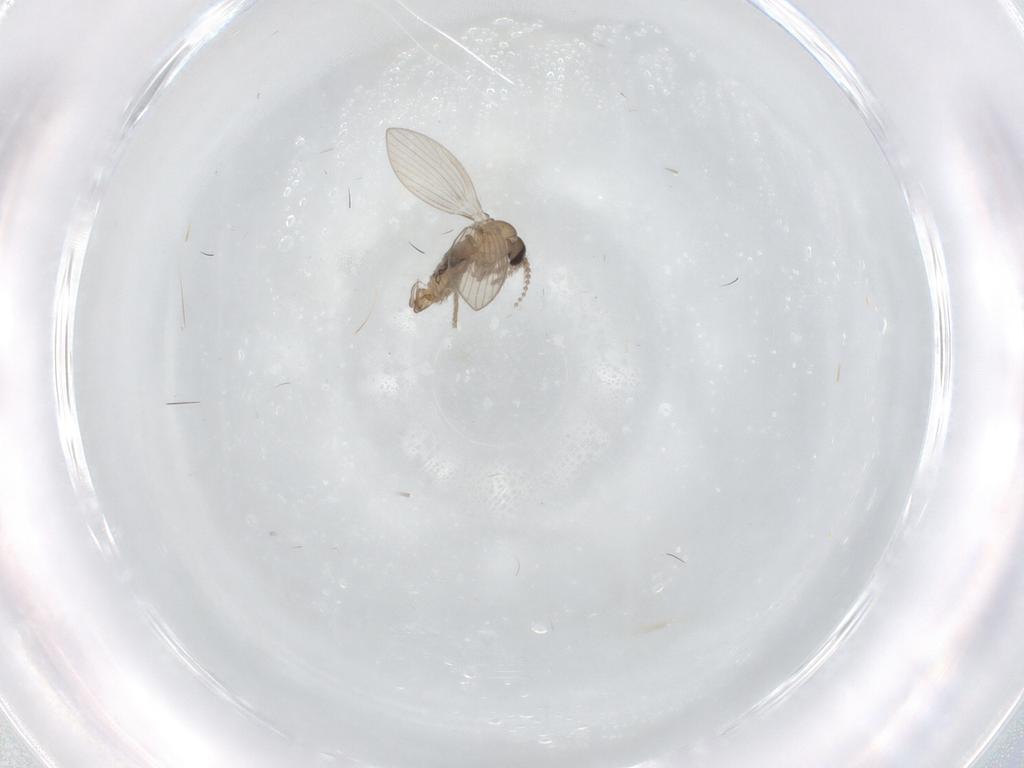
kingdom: Animalia
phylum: Arthropoda
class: Insecta
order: Diptera
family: Psychodidae
